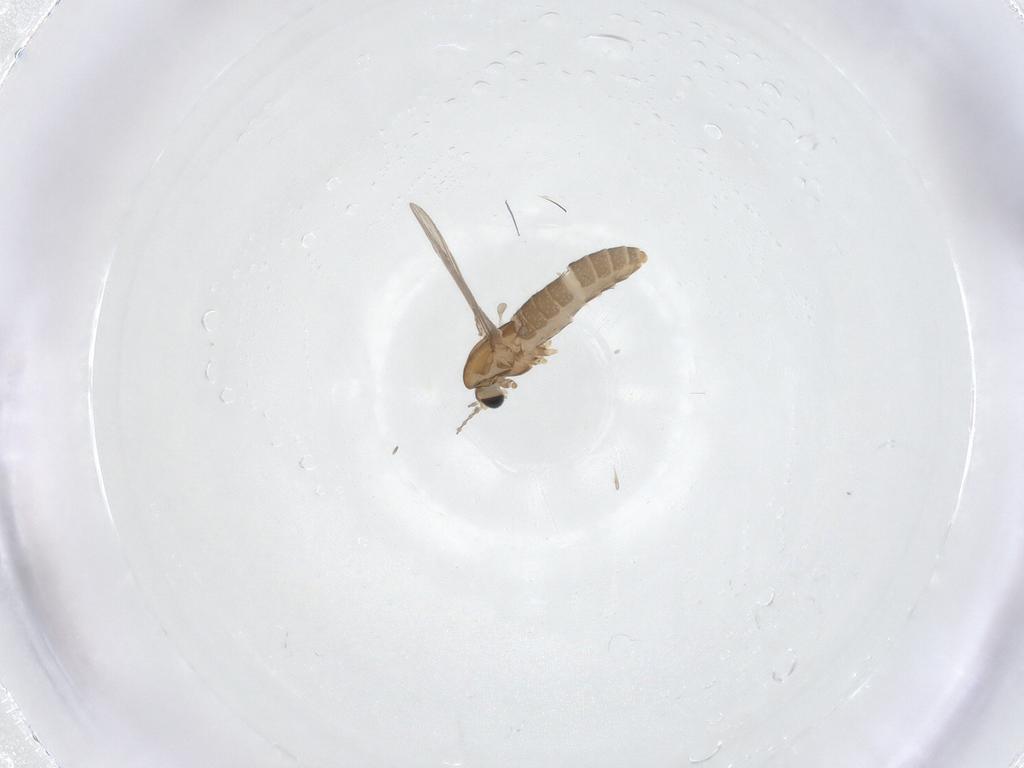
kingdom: Animalia
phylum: Arthropoda
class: Insecta
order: Diptera
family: Chironomidae
